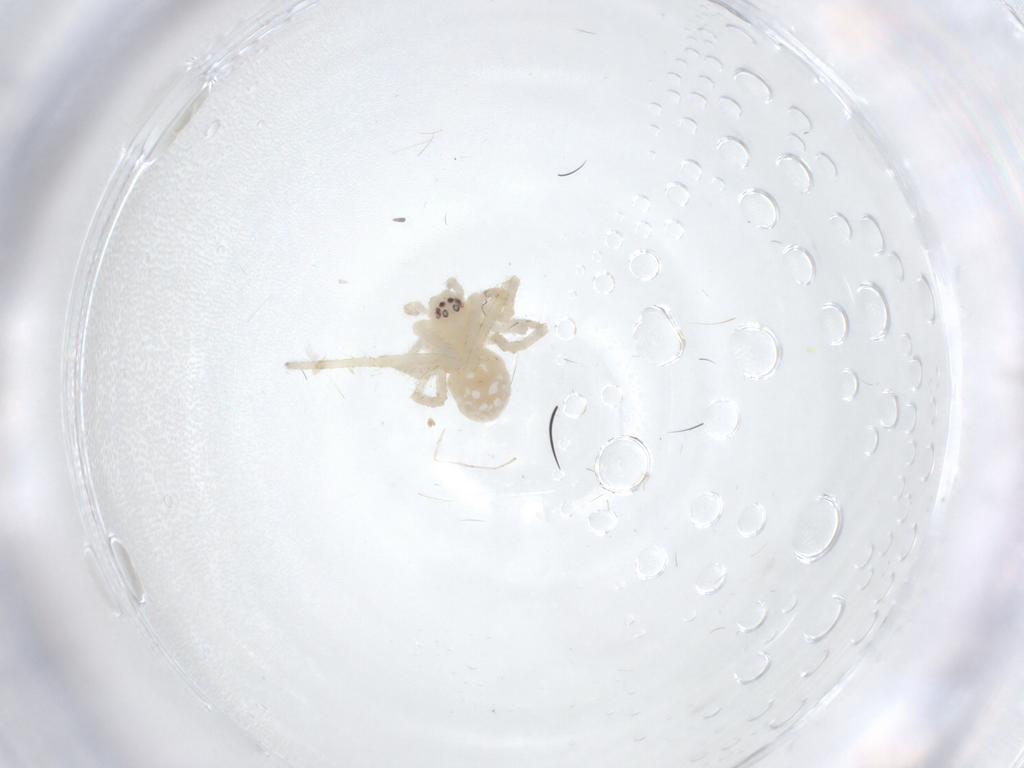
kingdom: Animalia
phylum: Arthropoda
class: Arachnida
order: Araneae
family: Theridiidae
